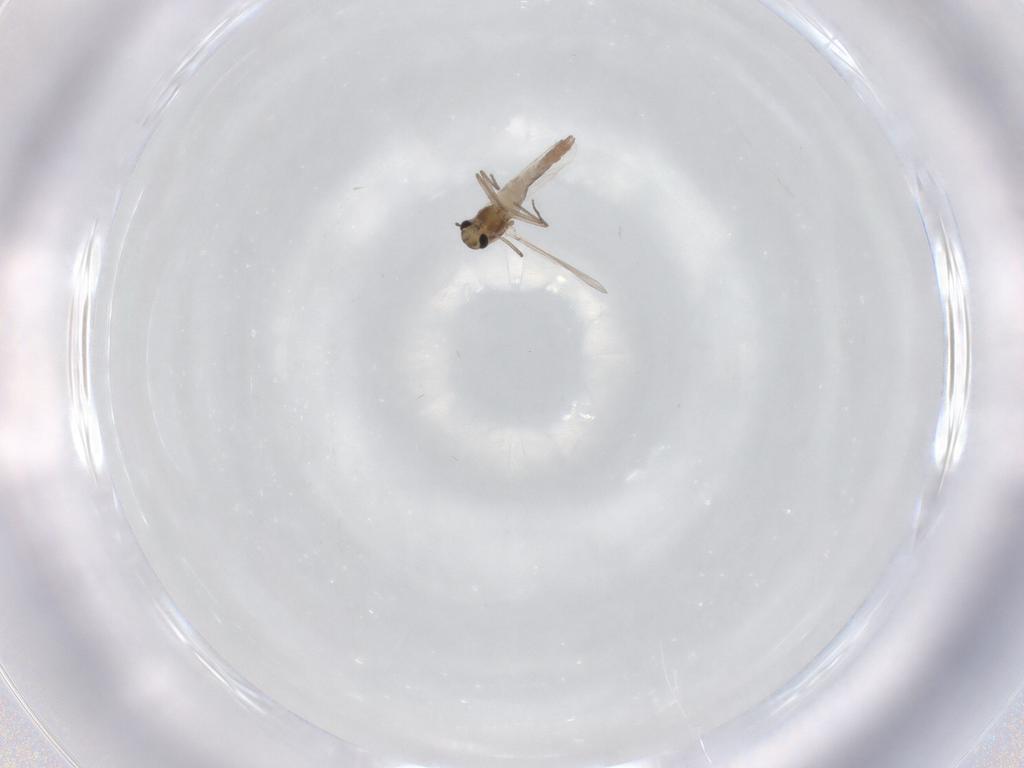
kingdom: Animalia
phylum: Arthropoda
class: Insecta
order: Diptera
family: Chironomidae
